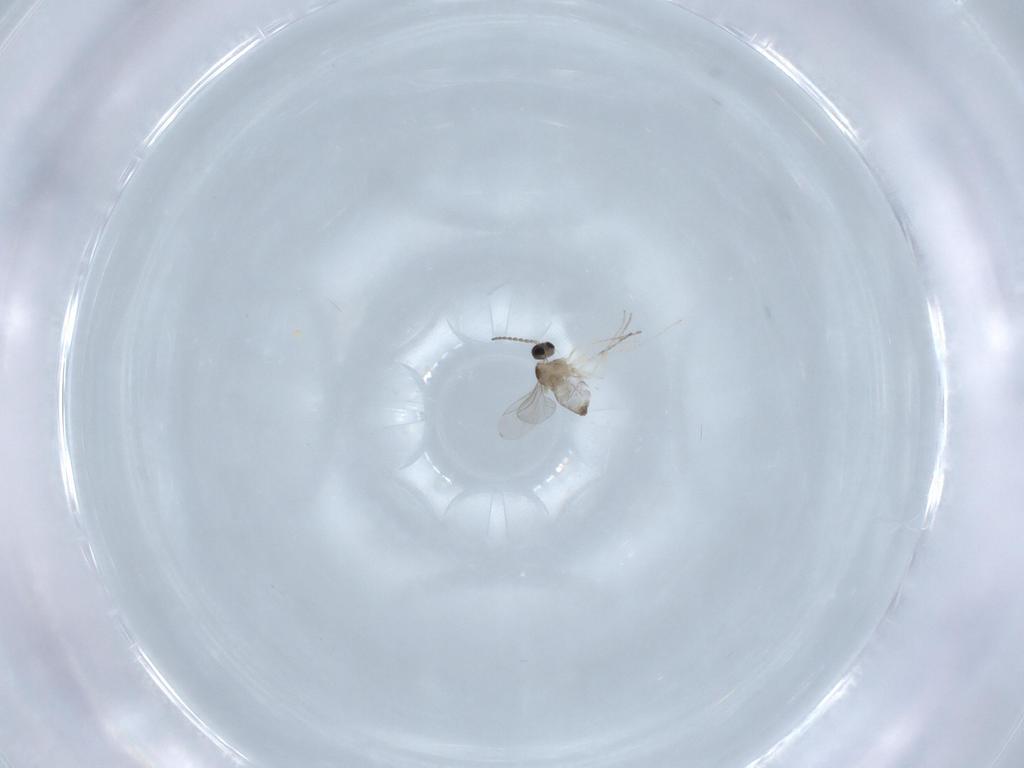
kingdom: Animalia
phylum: Arthropoda
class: Insecta
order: Diptera
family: Cecidomyiidae
